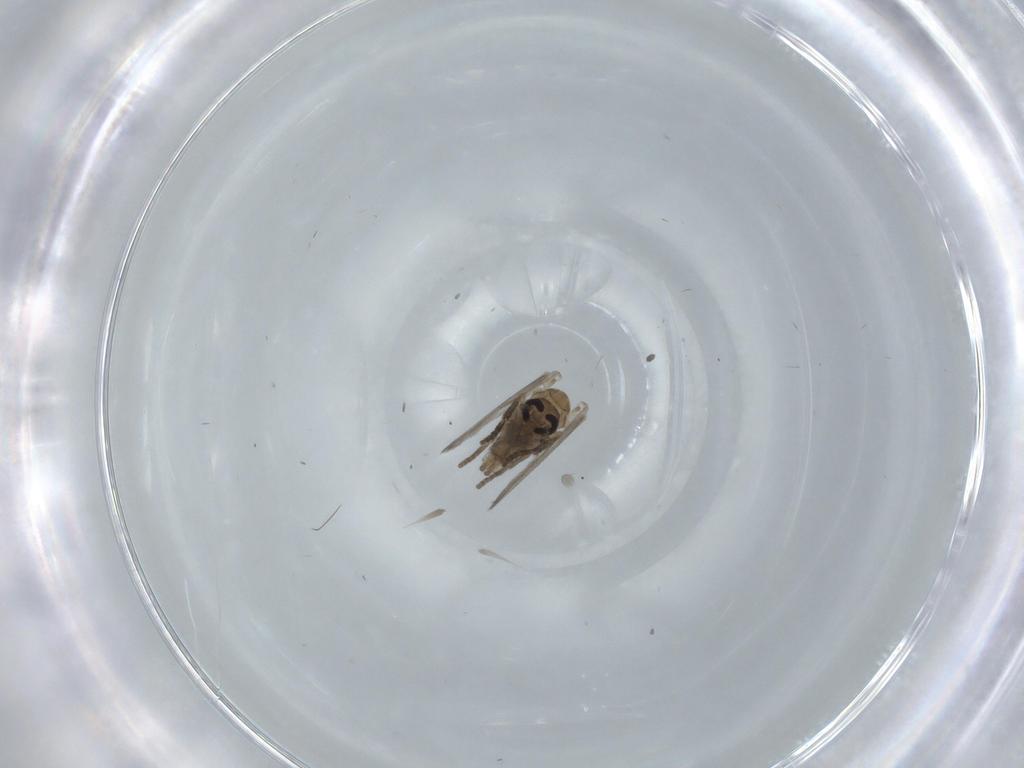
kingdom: Animalia
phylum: Arthropoda
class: Insecta
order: Diptera
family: Psychodidae
